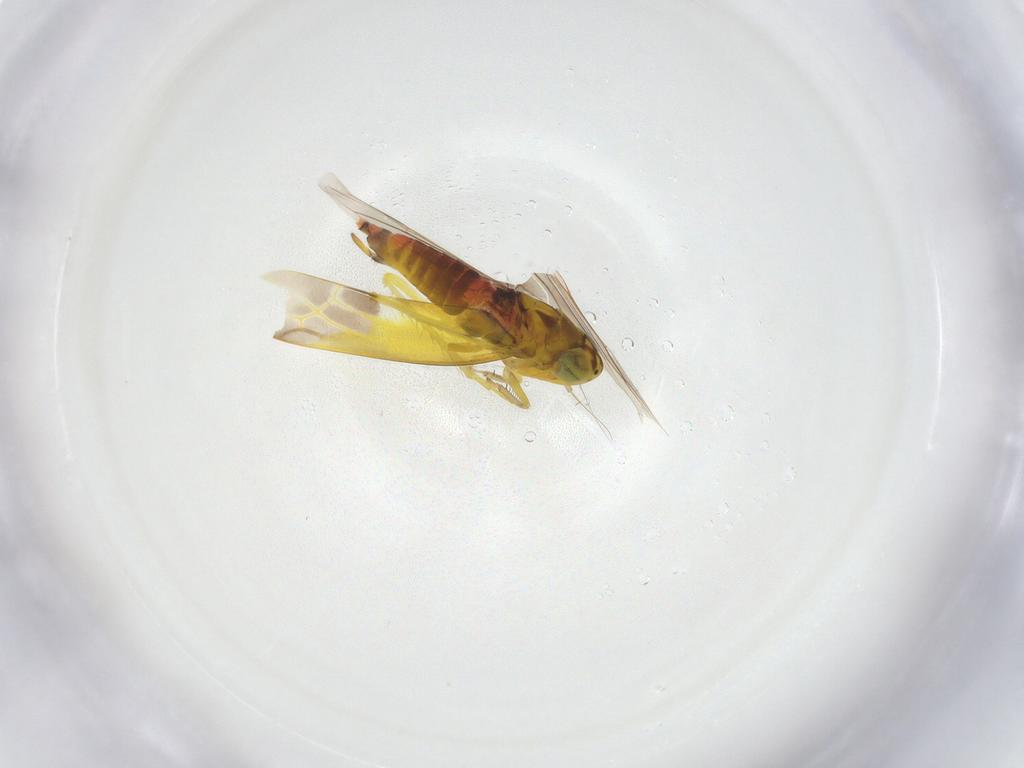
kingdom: Animalia
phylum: Arthropoda
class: Insecta
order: Hemiptera
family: Cicadellidae
